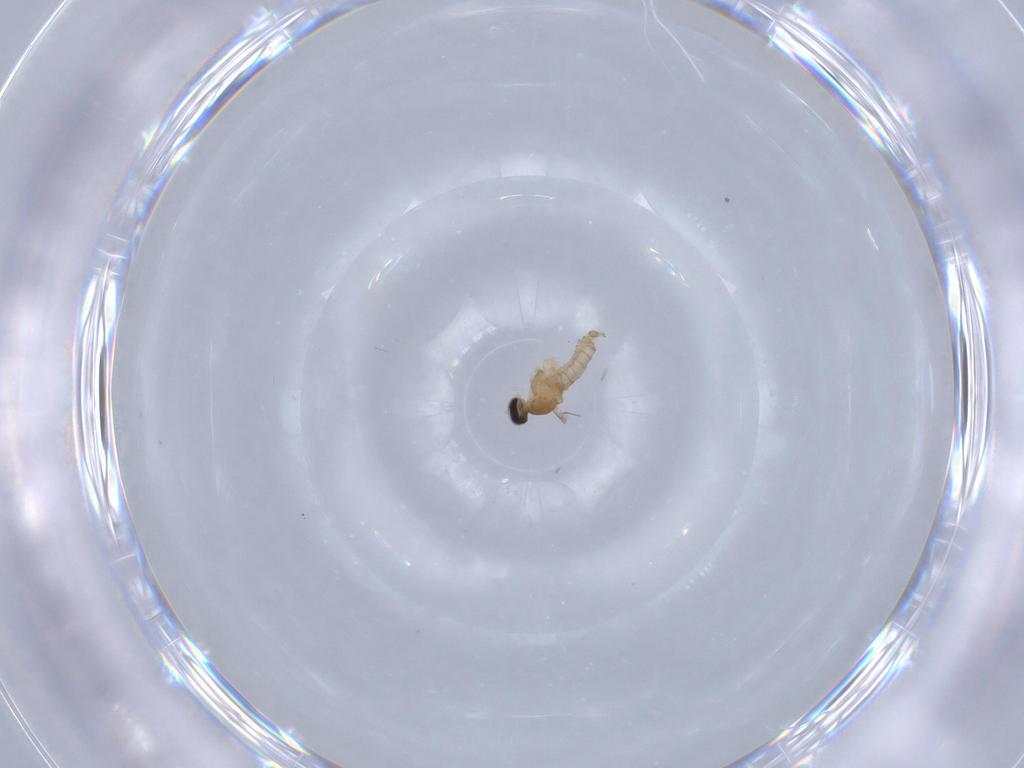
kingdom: Animalia
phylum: Arthropoda
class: Insecta
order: Diptera
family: Cecidomyiidae
